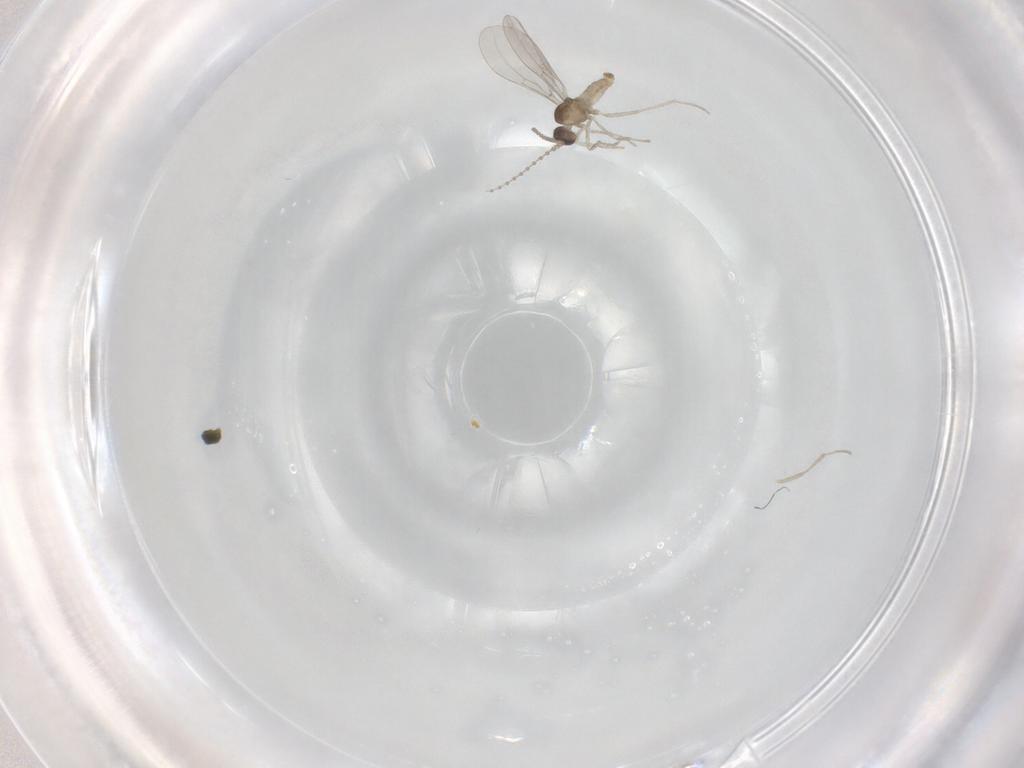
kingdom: Animalia
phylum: Arthropoda
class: Insecta
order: Diptera
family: Cecidomyiidae
